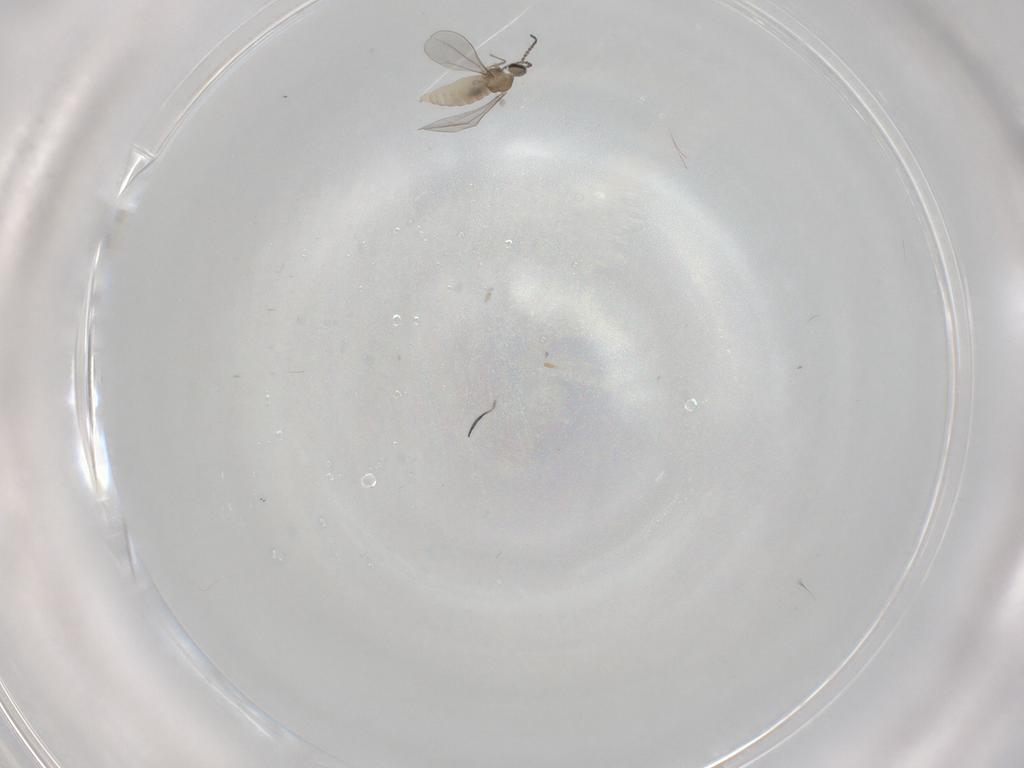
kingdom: Animalia
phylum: Arthropoda
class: Insecta
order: Diptera
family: Cecidomyiidae
